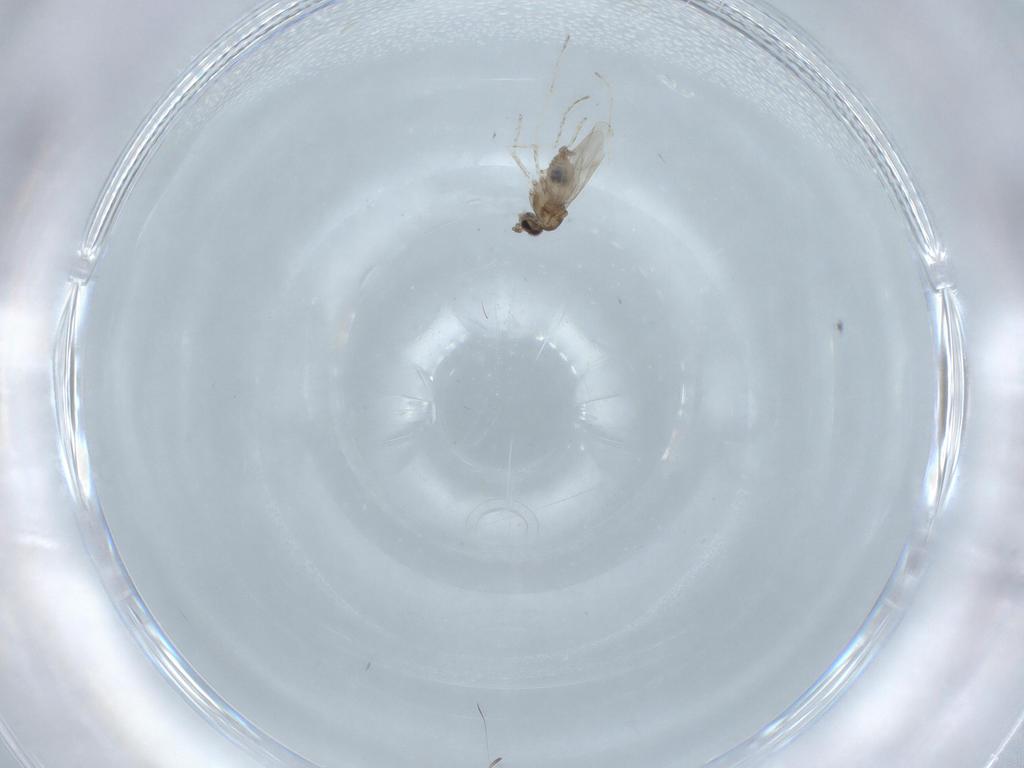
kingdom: Animalia
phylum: Arthropoda
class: Insecta
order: Diptera
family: Cecidomyiidae
